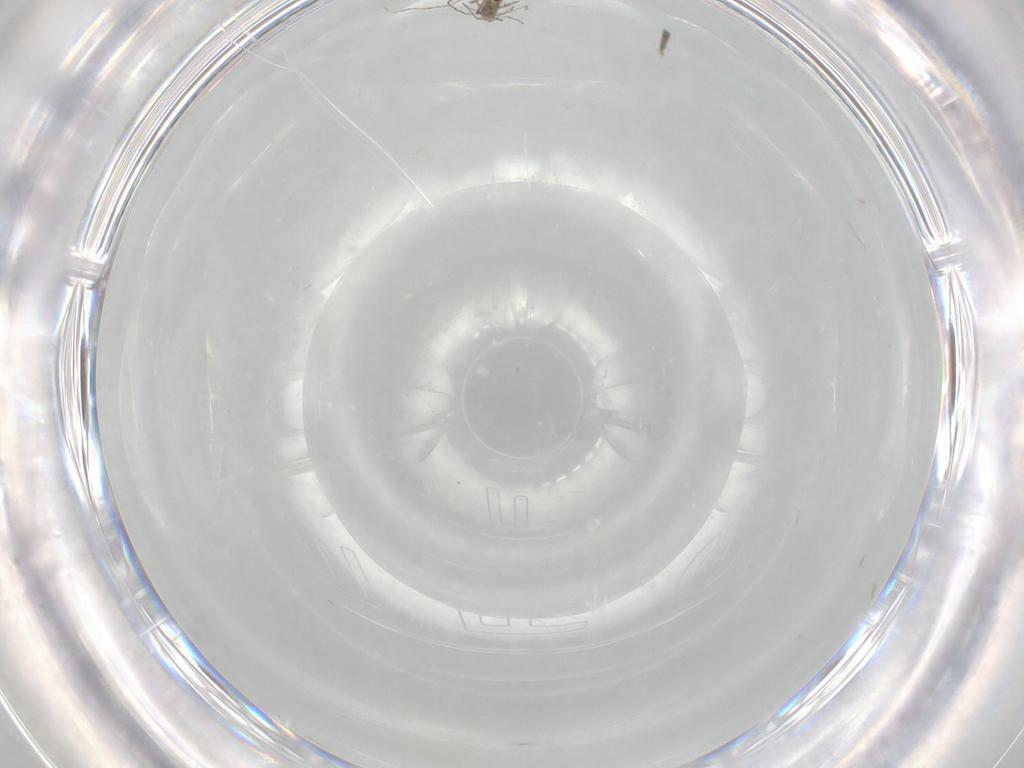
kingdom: Animalia
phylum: Arthropoda
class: Insecta
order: Diptera
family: Cecidomyiidae
